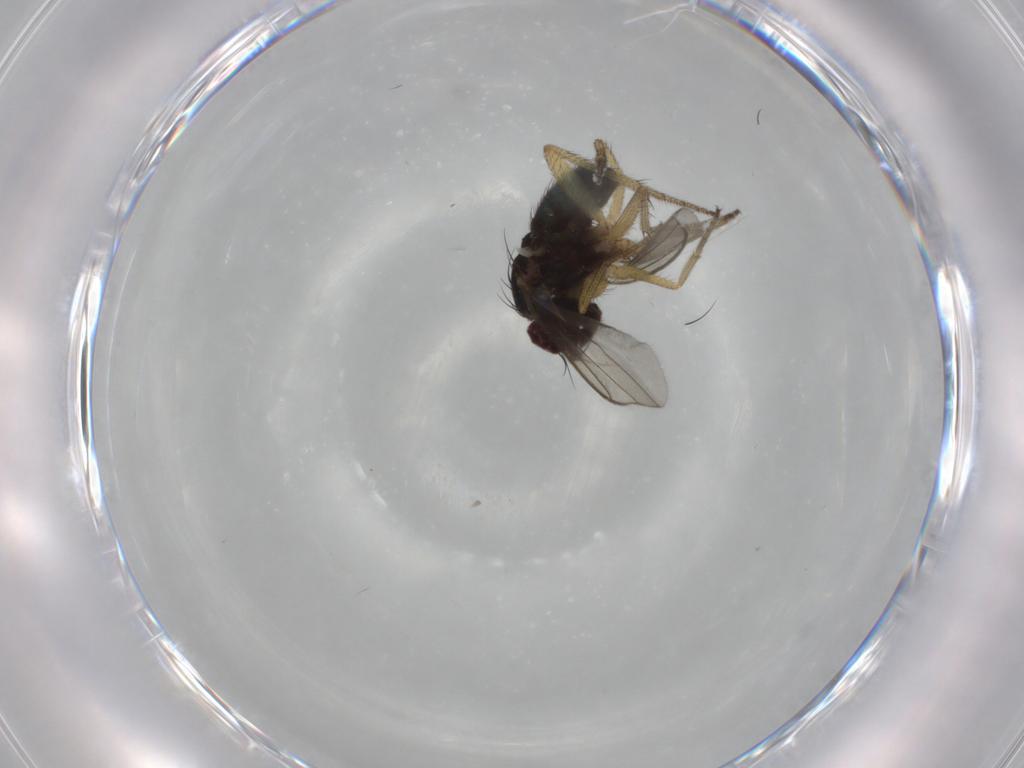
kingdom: Animalia
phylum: Arthropoda
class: Insecta
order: Diptera
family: Dolichopodidae
